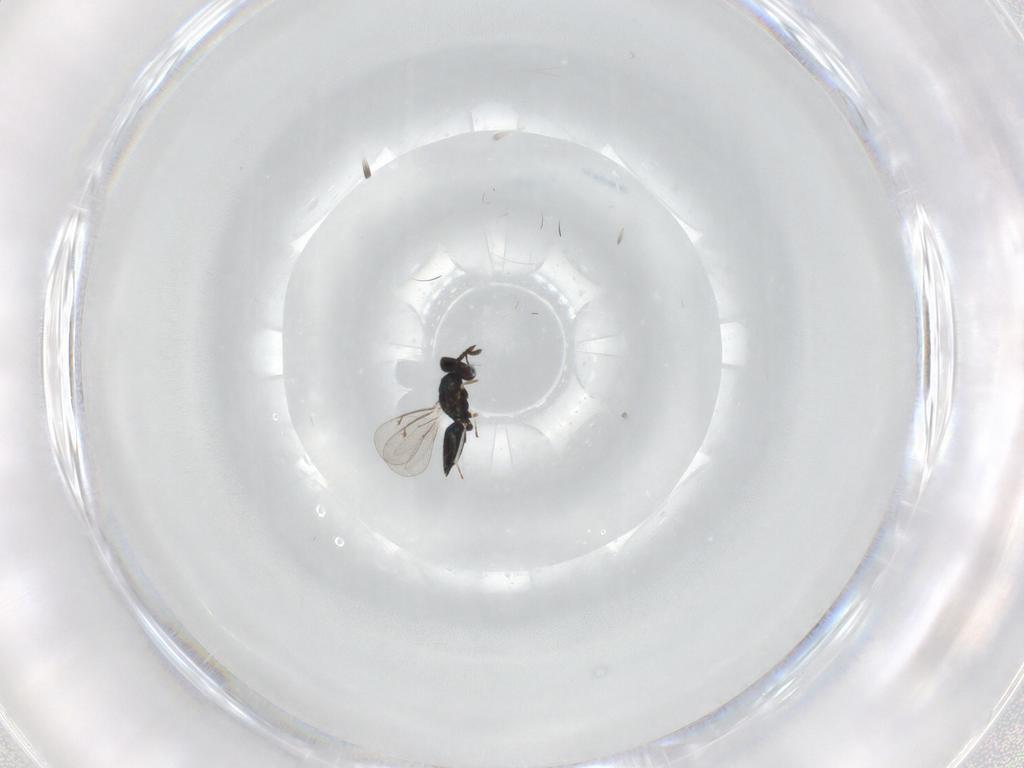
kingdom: Animalia
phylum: Arthropoda
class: Insecta
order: Hymenoptera
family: Eulophidae
